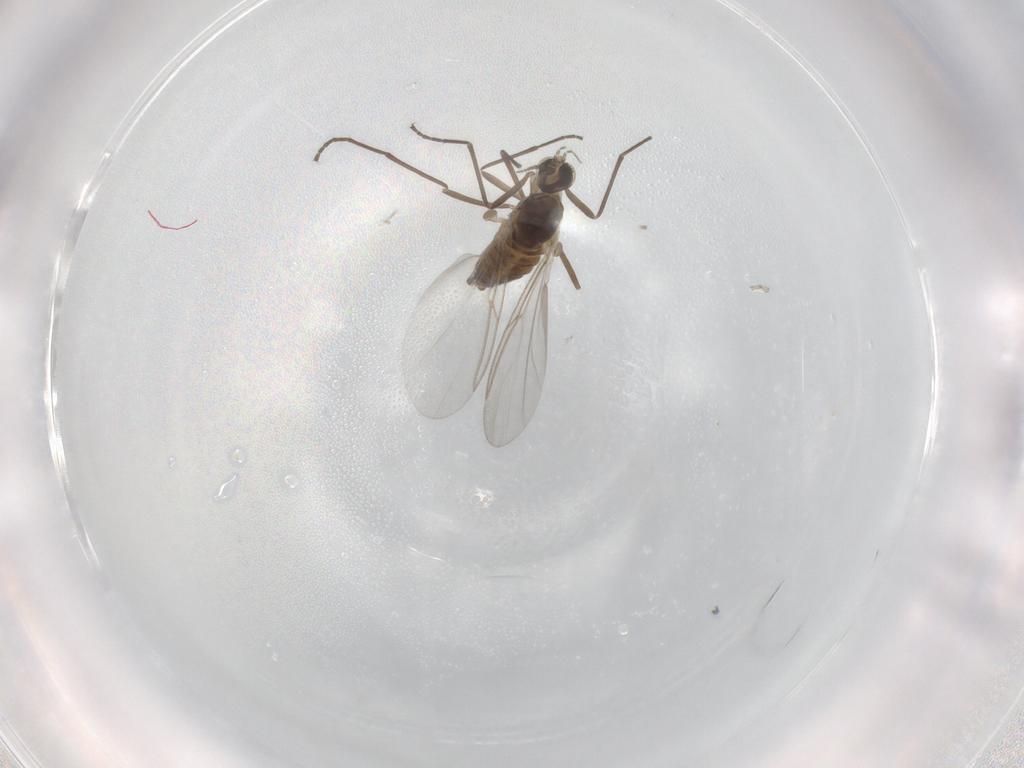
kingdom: Animalia
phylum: Arthropoda
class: Insecta
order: Diptera
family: Cecidomyiidae
